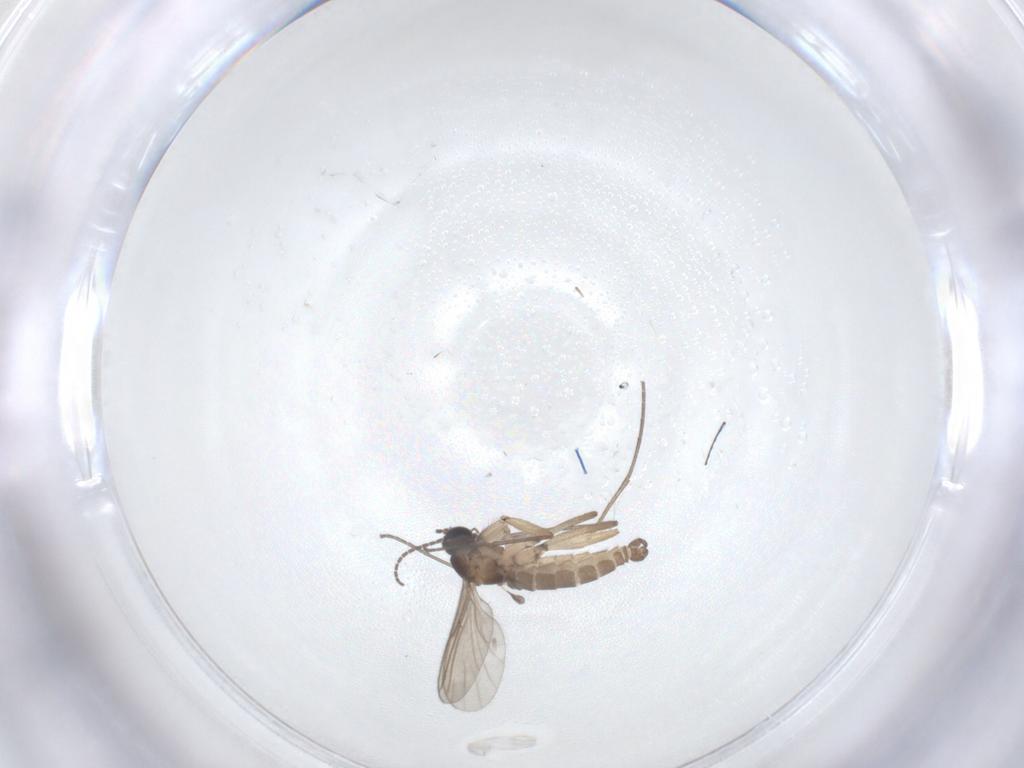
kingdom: Animalia
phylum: Arthropoda
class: Insecta
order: Diptera
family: Sciaridae
